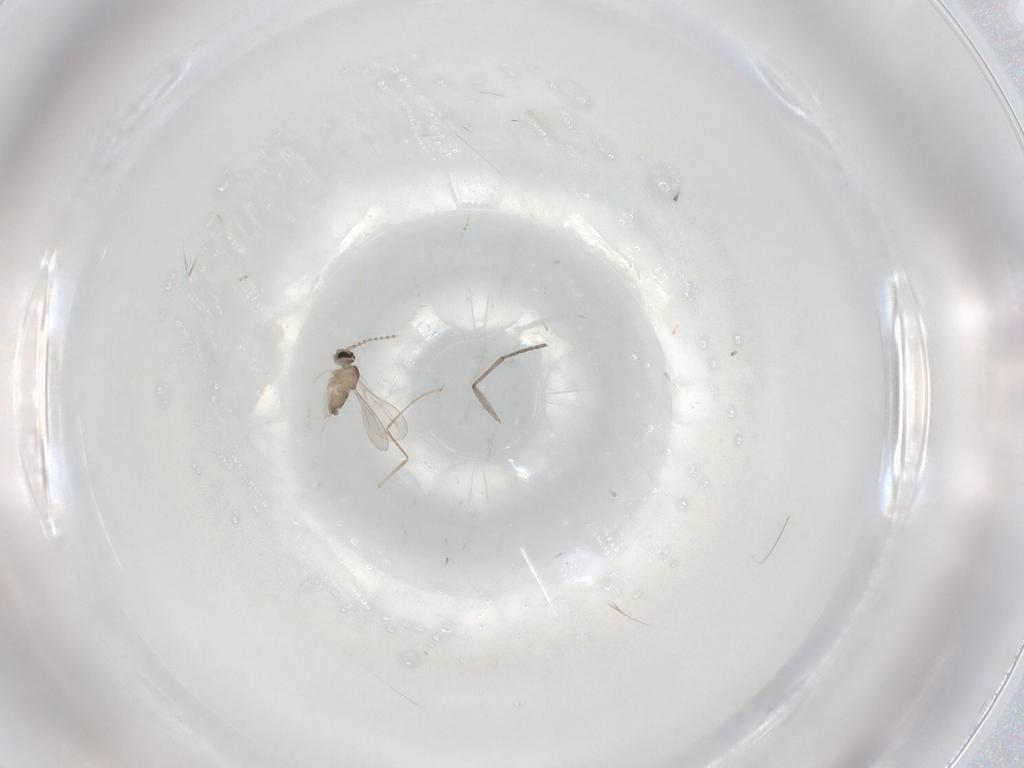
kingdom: Animalia
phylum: Arthropoda
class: Insecta
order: Diptera
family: Sciaridae
